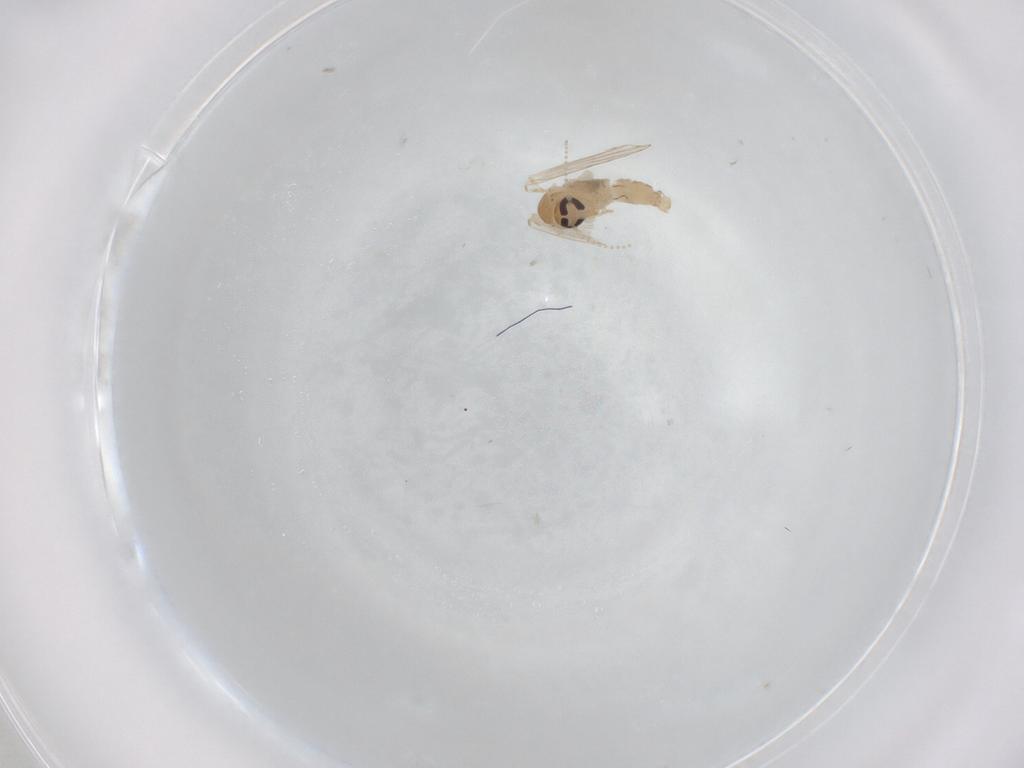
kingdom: Animalia
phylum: Arthropoda
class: Insecta
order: Diptera
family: Psychodidae
